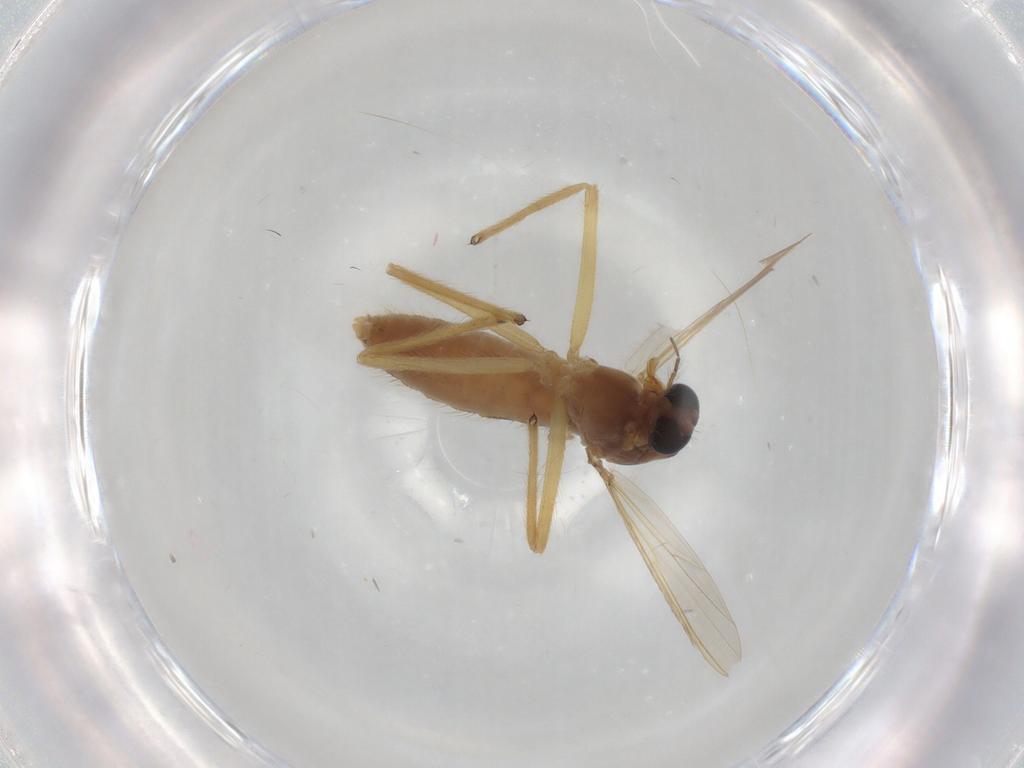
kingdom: Animalia
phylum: Arthropoda
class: Insecta
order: Diptera
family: Chironomidae
